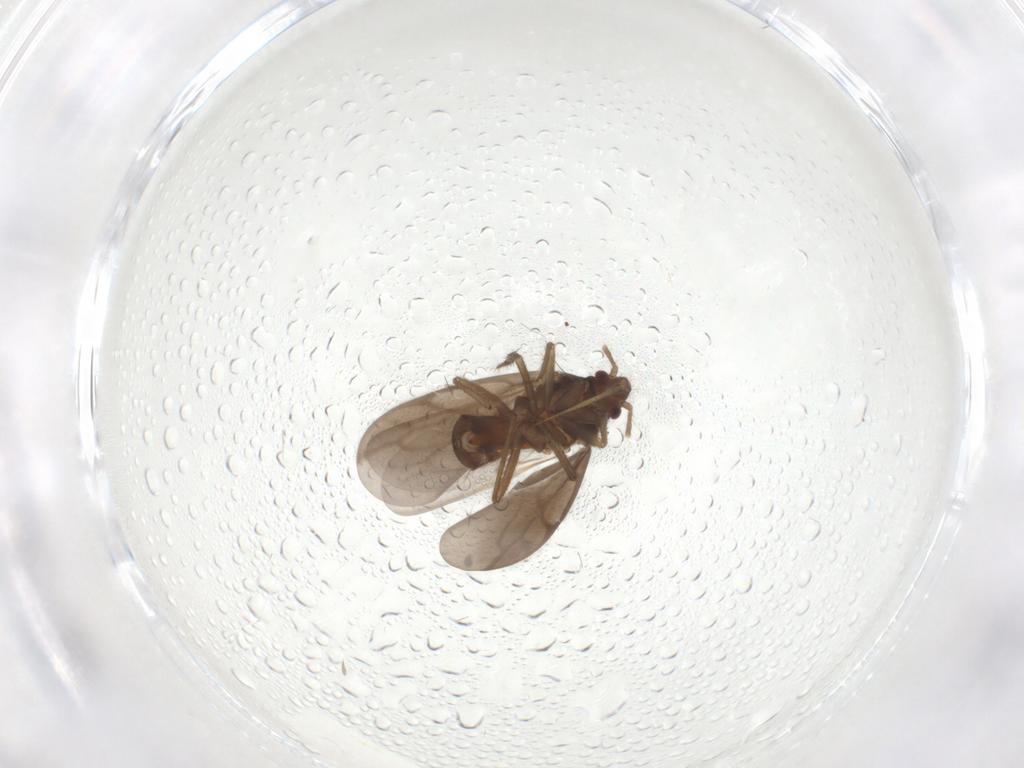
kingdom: Animalia
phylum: Arthropoda
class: Insecta
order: Hemiptera
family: Ceratocombidae
